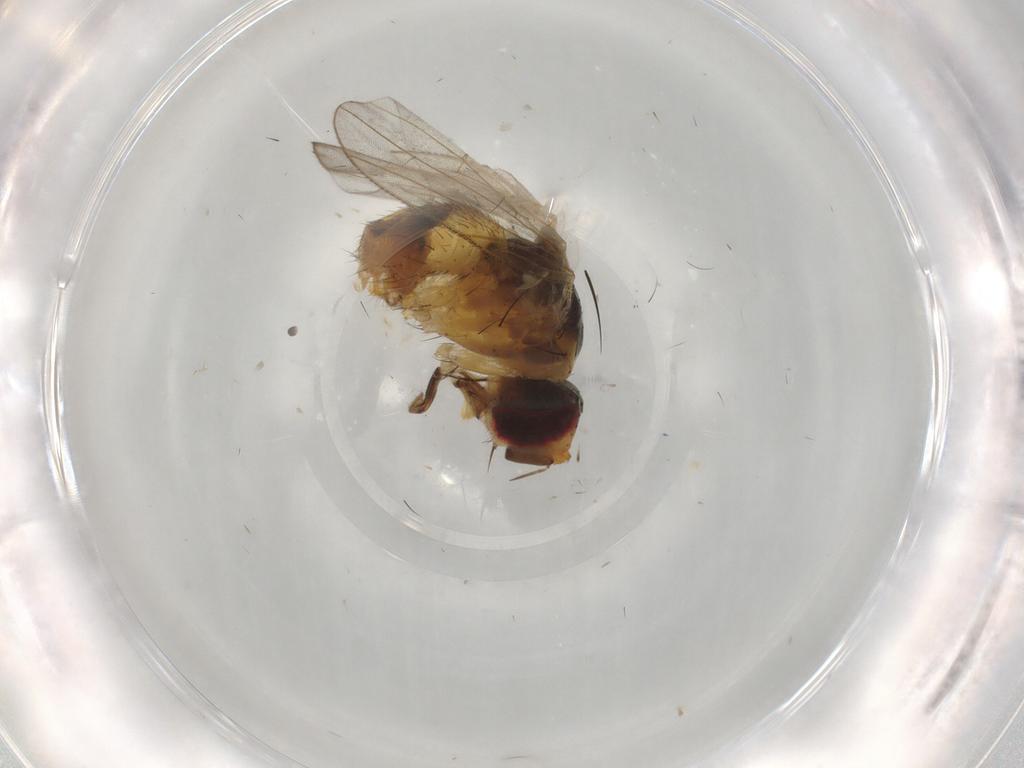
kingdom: Animalia
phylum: Arthropoda
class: Insecta
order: Diptera
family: Muscidae
